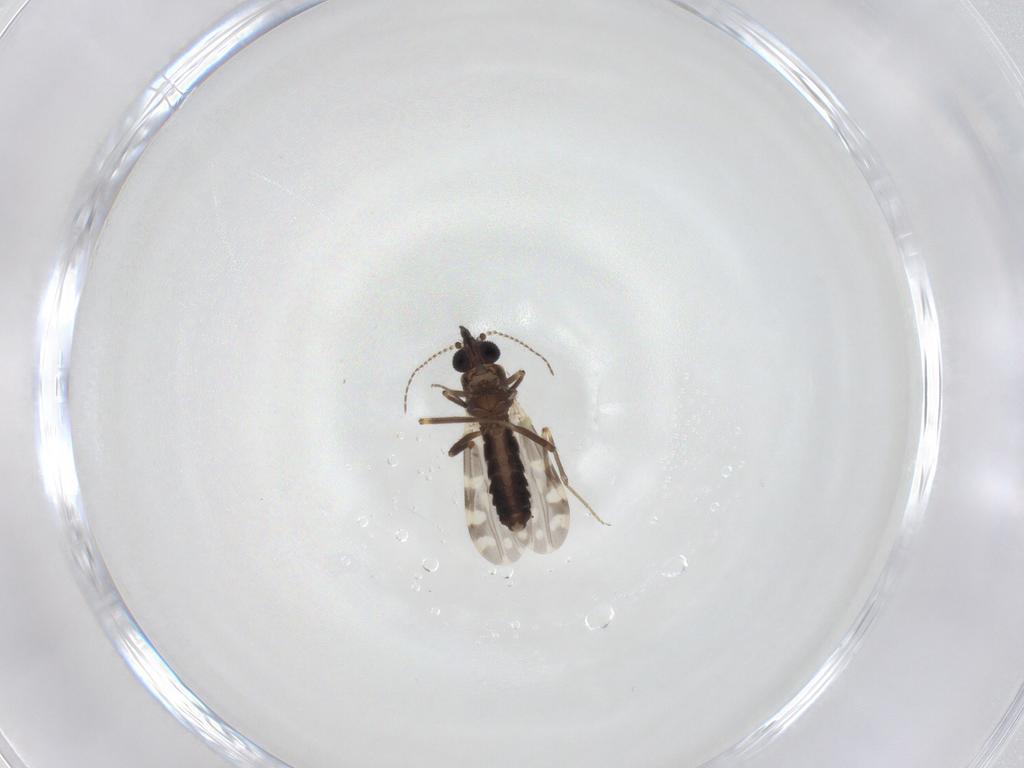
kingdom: Animalia
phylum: Arthropoda
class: Insecta
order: Diptera
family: Ceratopogonidae
